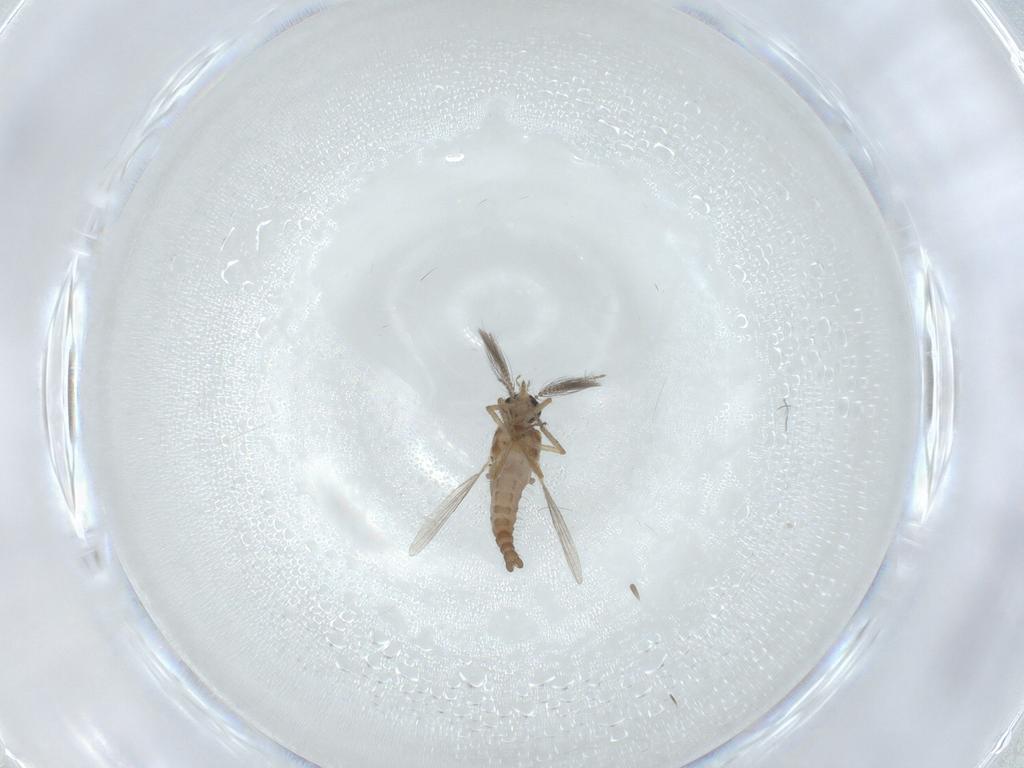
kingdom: Animalia
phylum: Arthropoda
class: Insecta
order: Diptera
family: Ceratopogonidae
